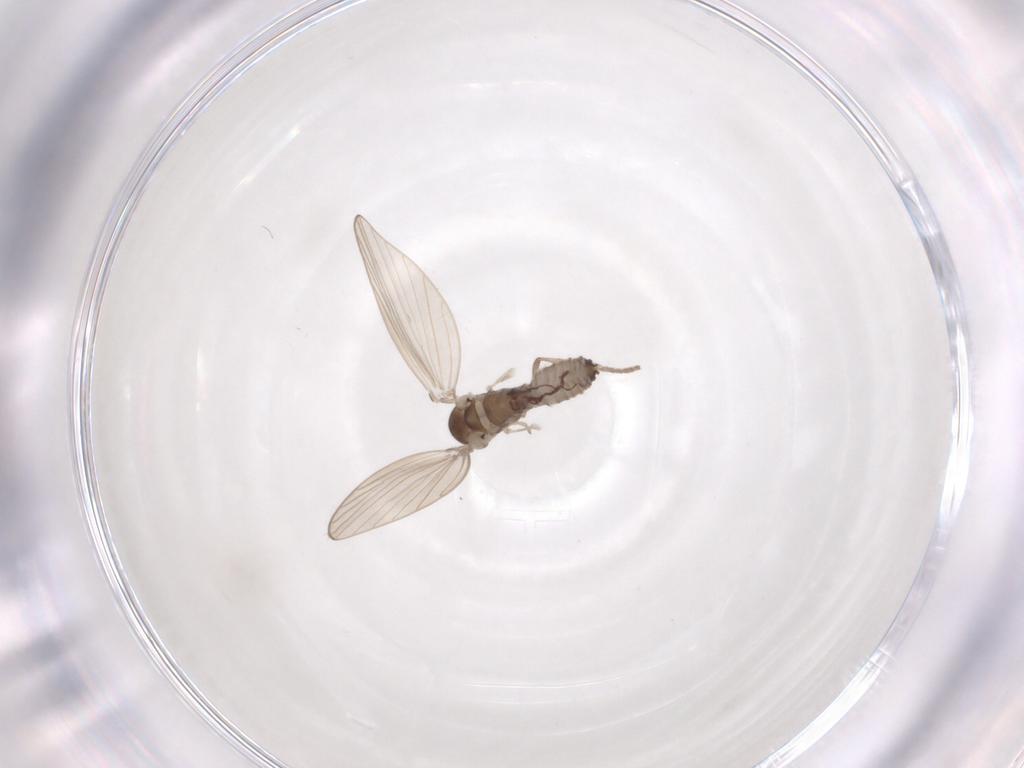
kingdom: Animalia
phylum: Arthropoda
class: Insecta
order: Diptera
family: Psychodidae
